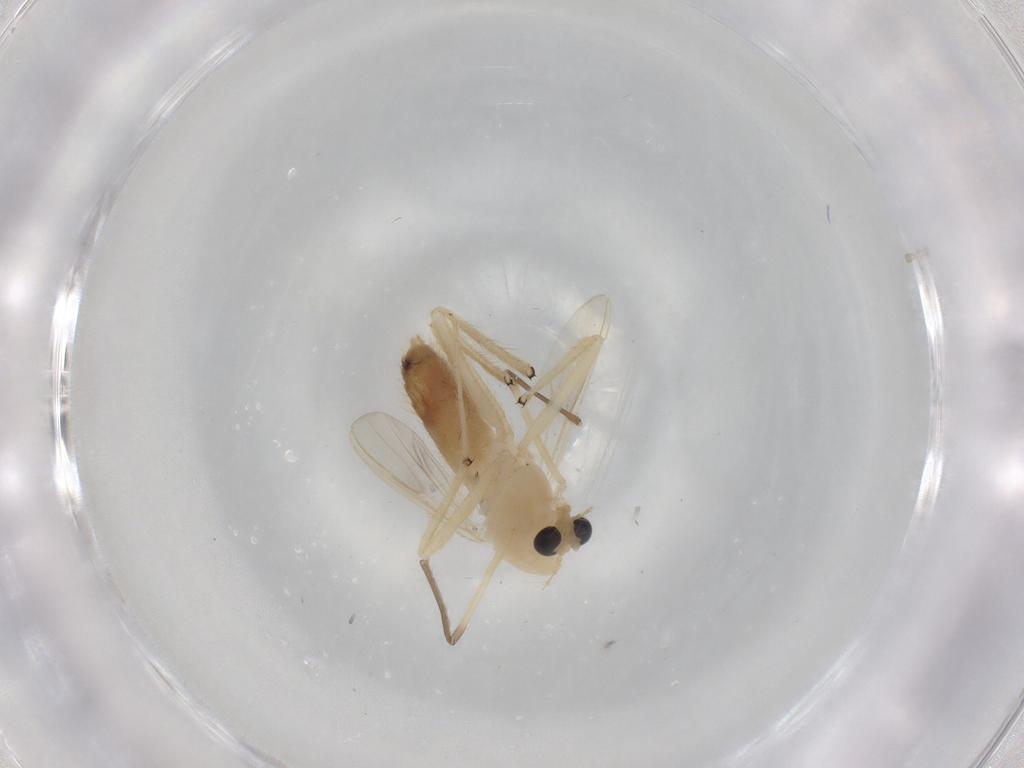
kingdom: Animalia
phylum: Arthropoda
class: Insecta
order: Diptera
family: Chironomidae
